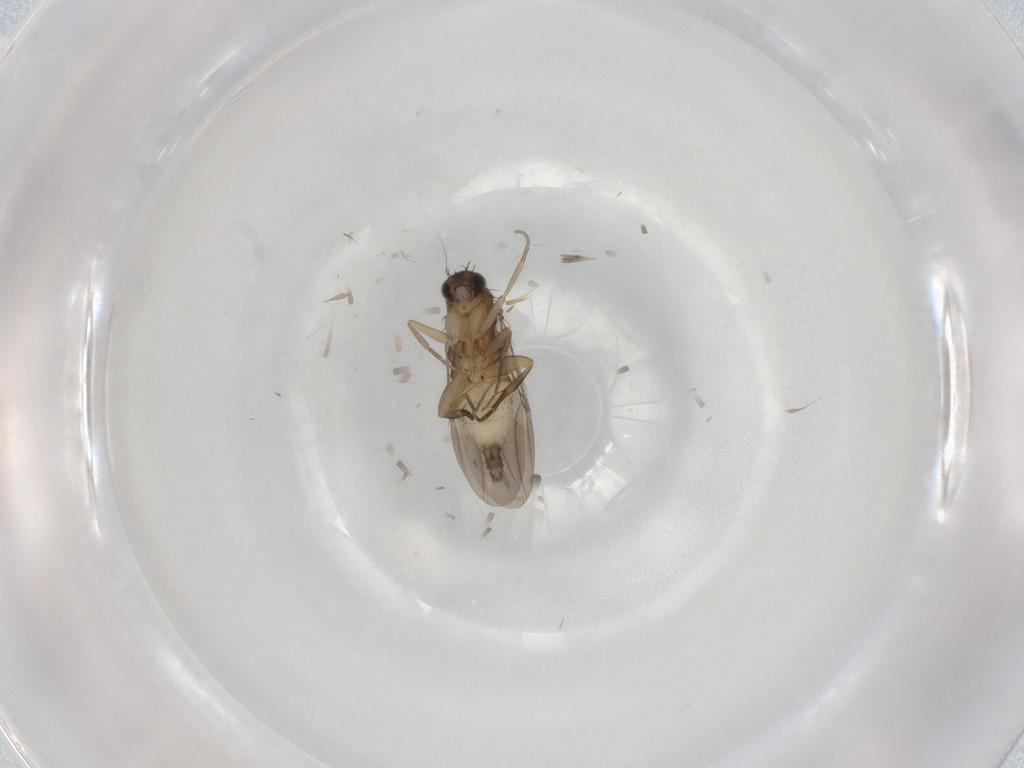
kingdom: Animalia
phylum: Arthropoda
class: Insecta
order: Diptera
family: Phoridae
